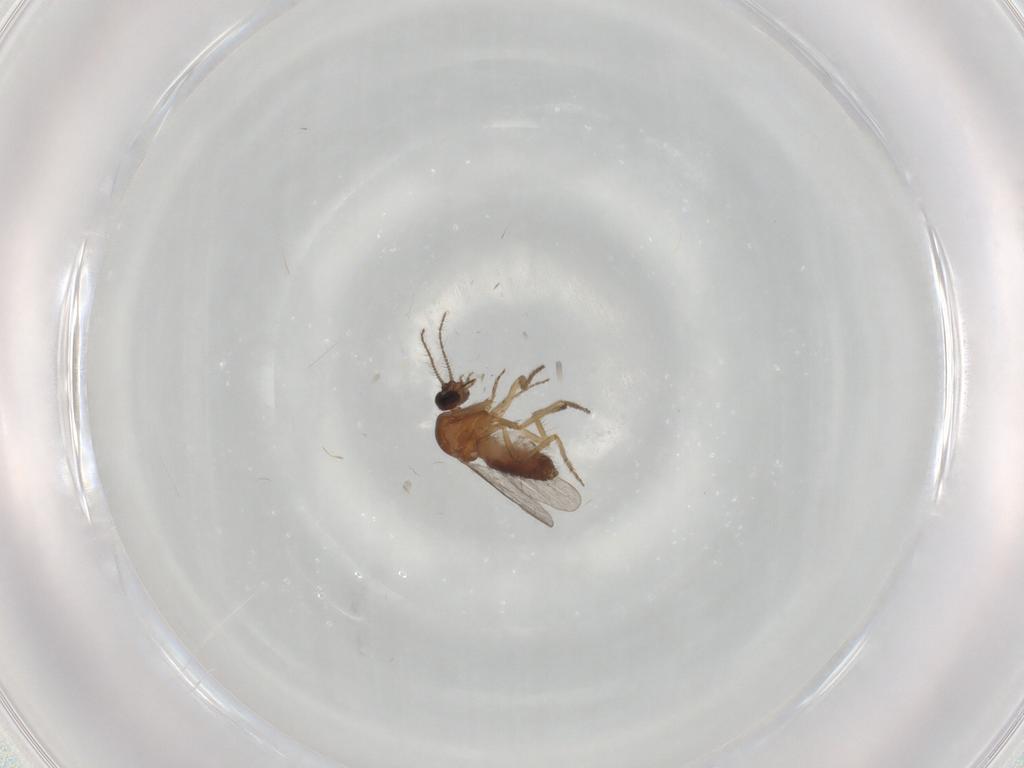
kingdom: Animalia
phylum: Arthropoda
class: Insecta
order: Diptera
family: Ceratopogonidae
